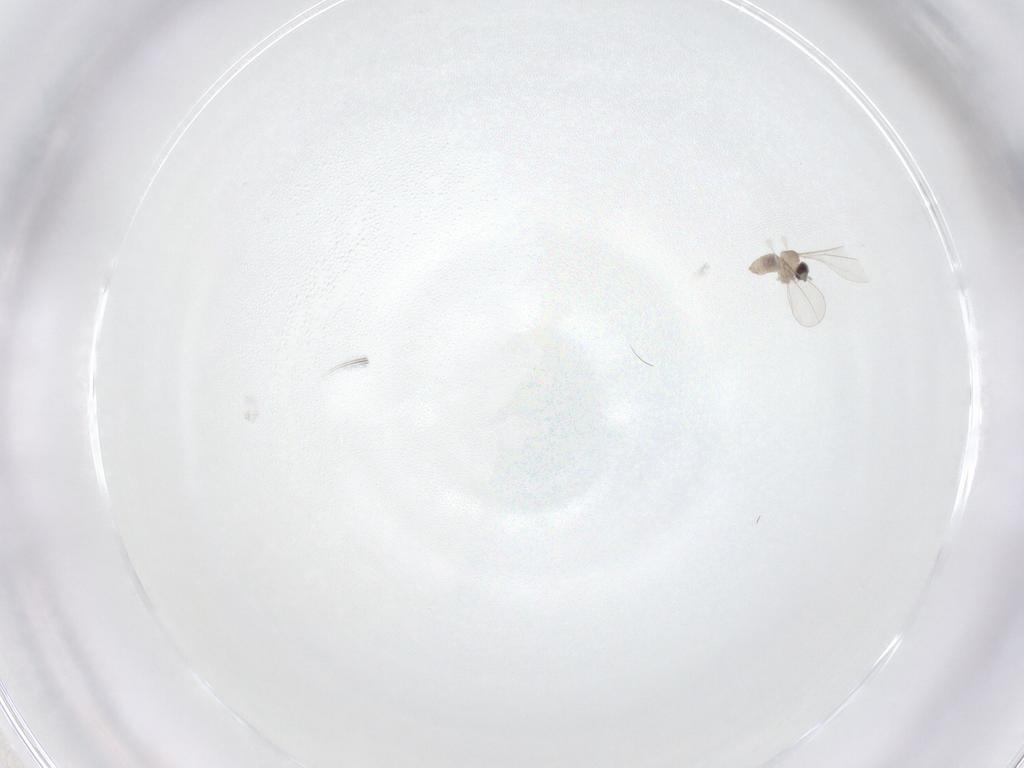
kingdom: Animalia
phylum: Arthropoda
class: Insecta
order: Diptera
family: Cecidomyiidae
